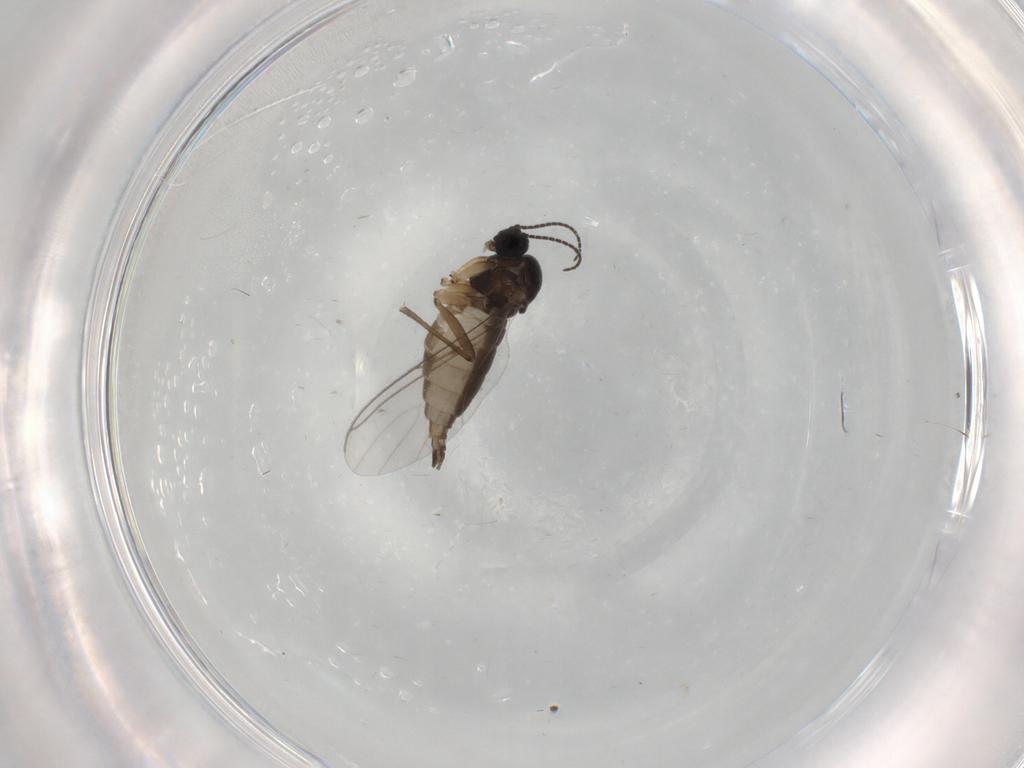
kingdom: Animalia
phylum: Arthropoda
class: Insecta
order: Diptera
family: Sciaridae
